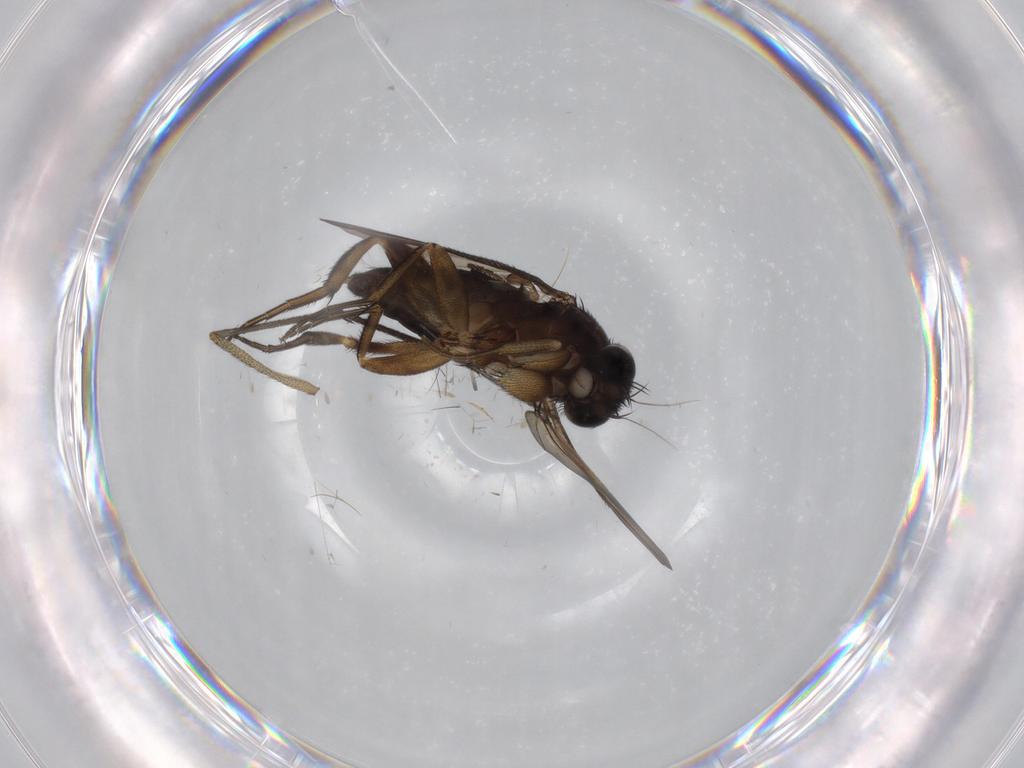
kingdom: Animalia
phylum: Arthropoda
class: Insecta
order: Diptera
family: Phoridae
